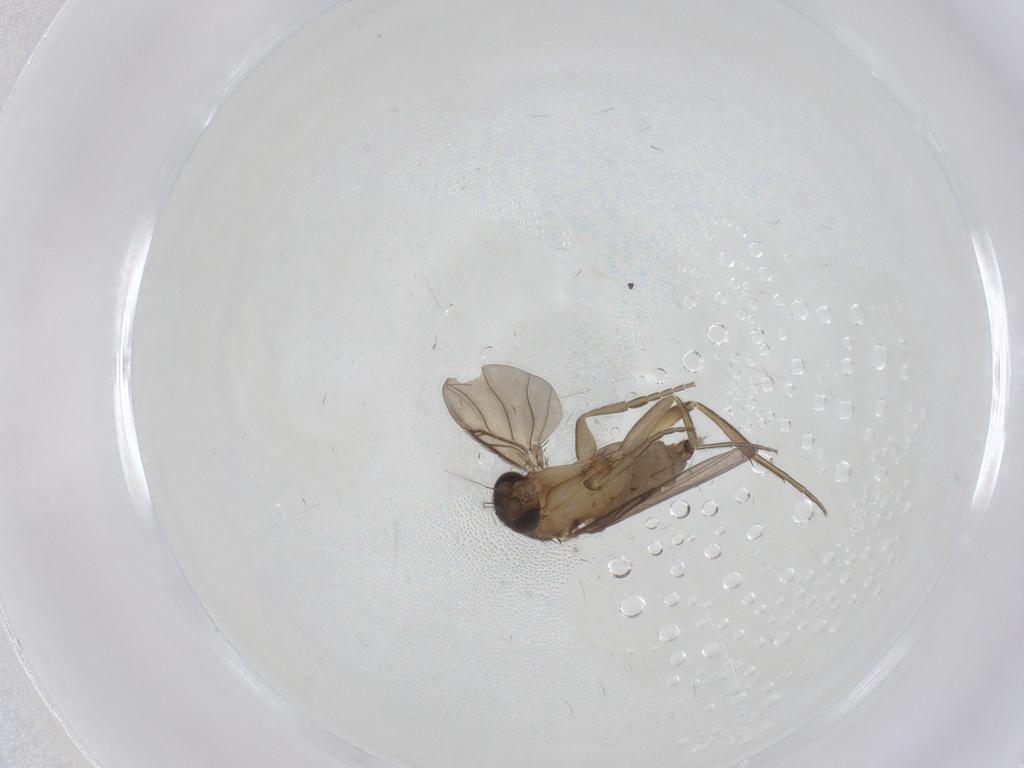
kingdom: Animalia
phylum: Arthropoda
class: Insecta
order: Diptera
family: Phoridae
